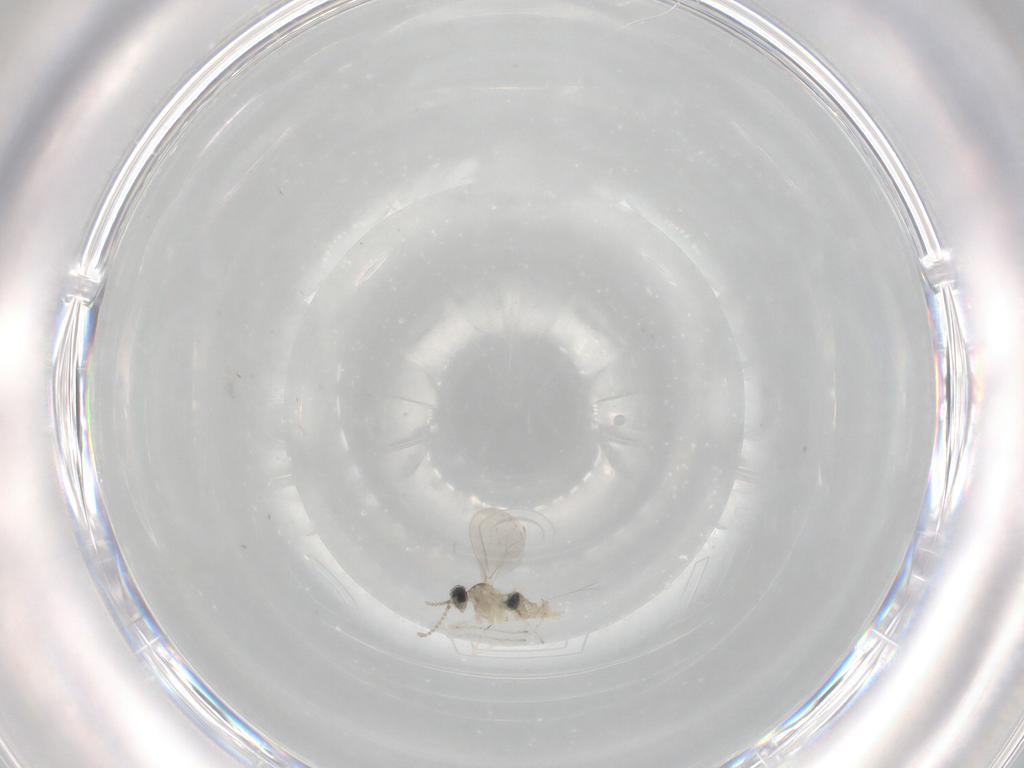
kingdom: Animalia
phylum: Arthropoda
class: Insecta
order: Diptera
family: Cecidomyiidae
